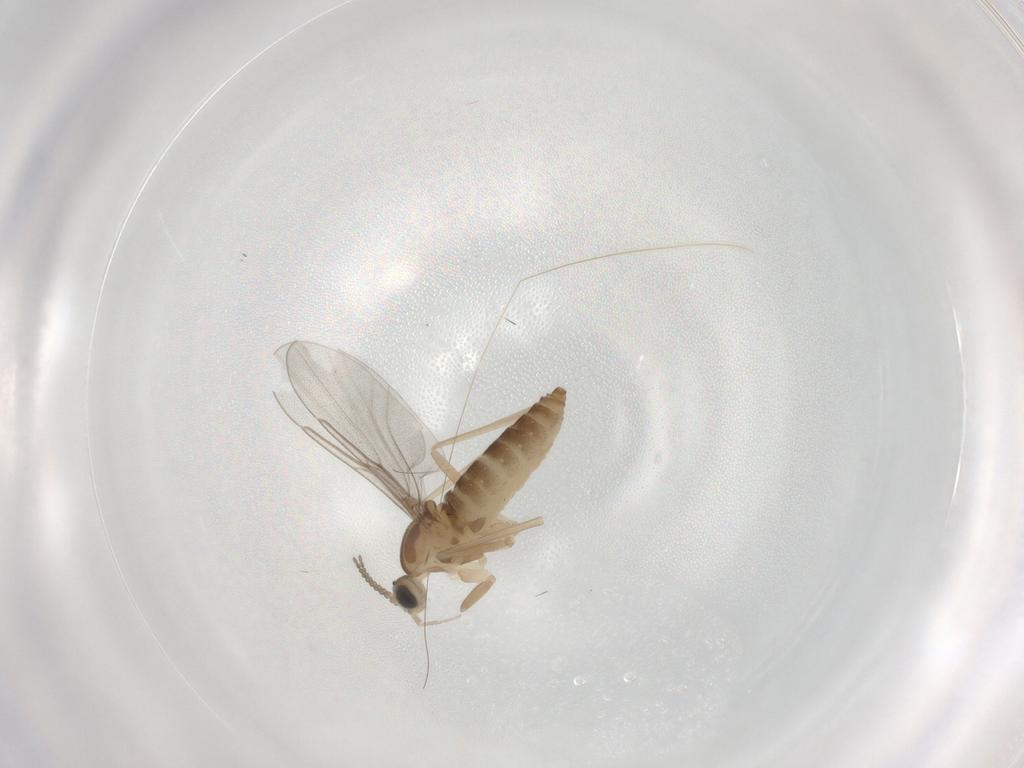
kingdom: Animalia
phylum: Arthropoda
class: Insecta
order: Diptera
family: Cecidomyiidae
